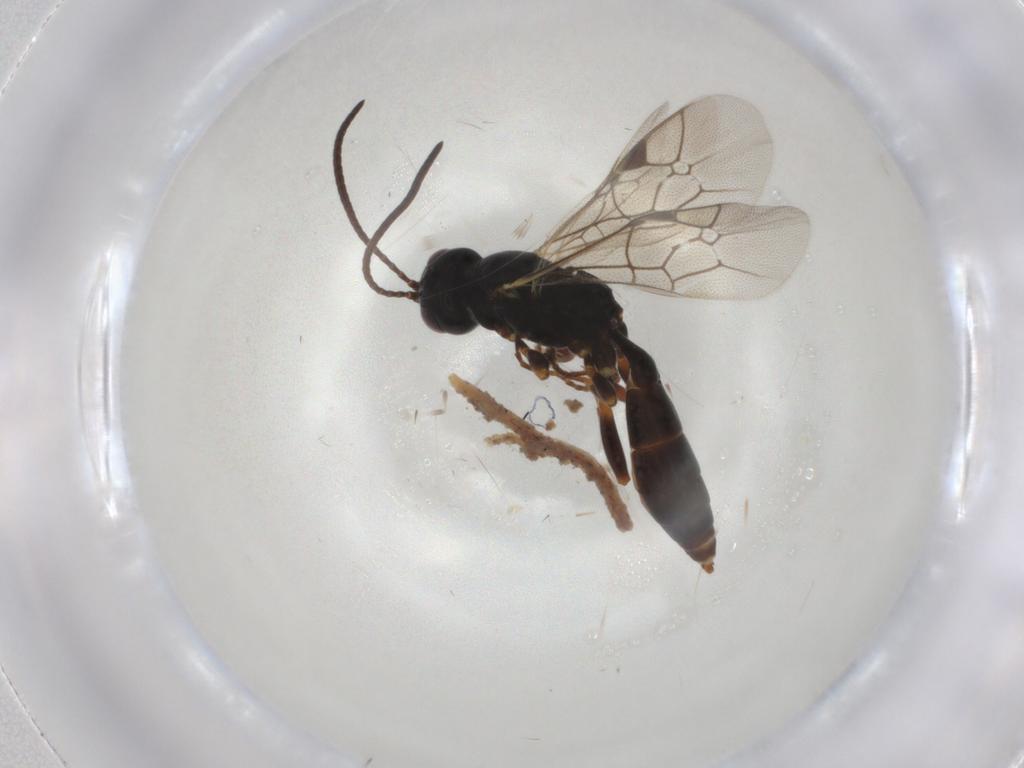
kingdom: Animalia
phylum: Arthropoda
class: Insecta
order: Hymenoptera
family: Ichneumonidae
